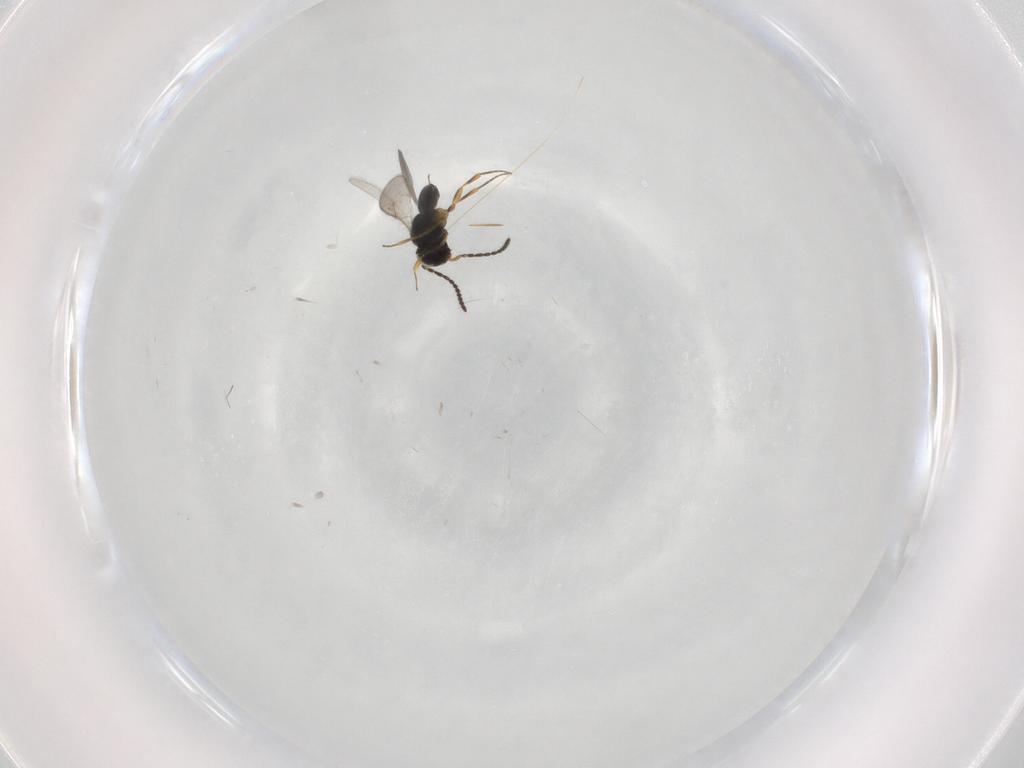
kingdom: Animalia
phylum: Arthropoda
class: Insecta
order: Hymenoptera
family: Scelionidae
